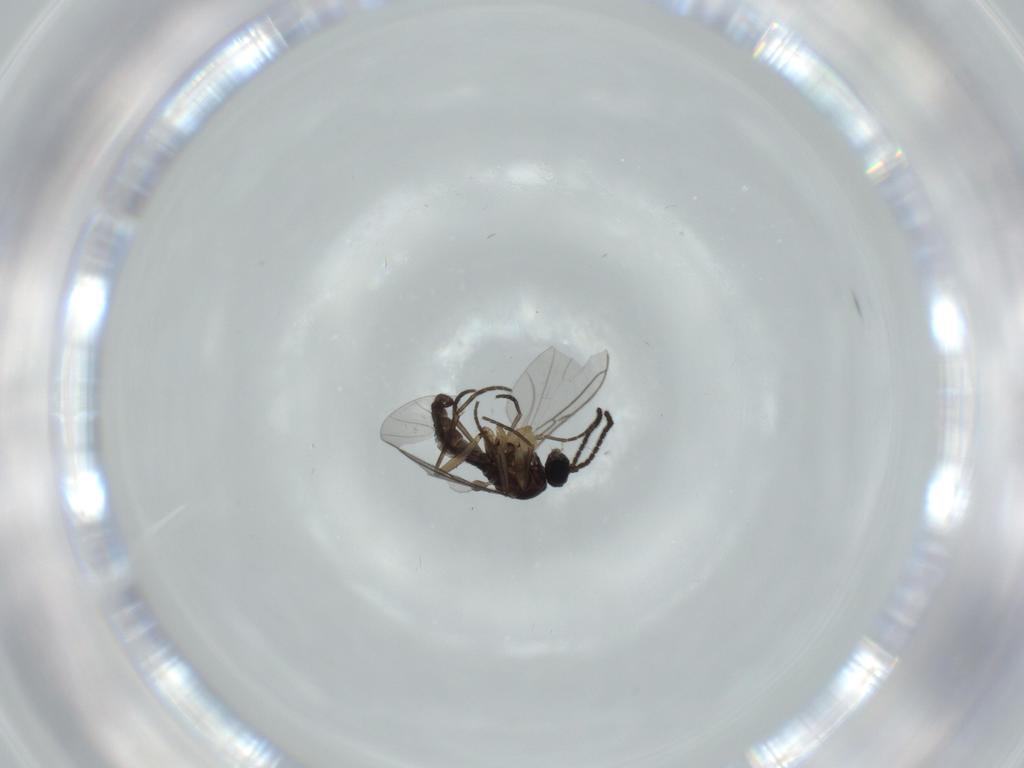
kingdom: Animalia
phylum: Arthropoda
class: Insecta
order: Diptera
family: Sciaridae
